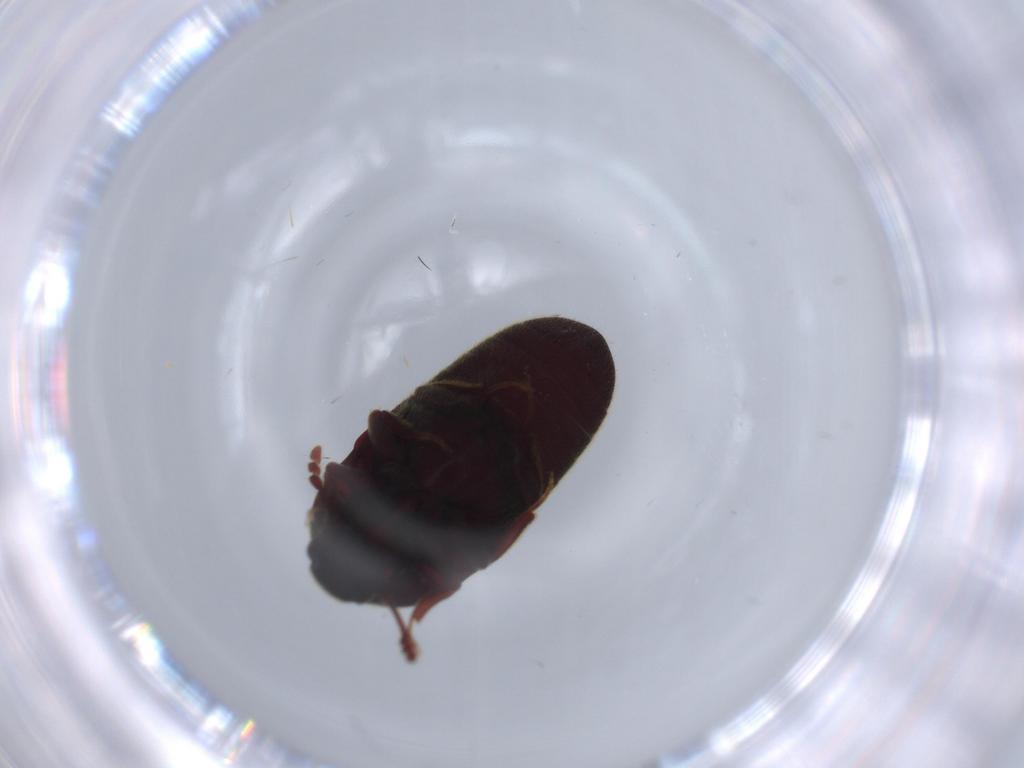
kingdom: Animalia
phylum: Arthropoda
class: Insecta
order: Coleoptera
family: Throscidae
